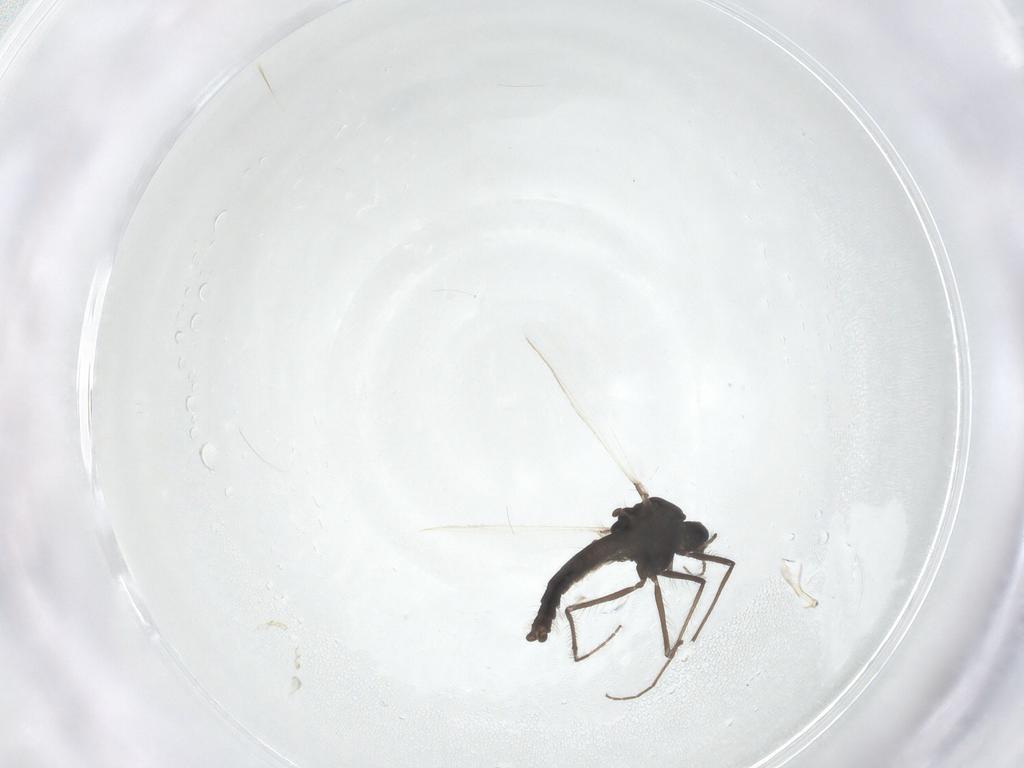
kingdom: Animalia
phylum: Arthropoda
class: Insecta
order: Diptera
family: Chironomidae
